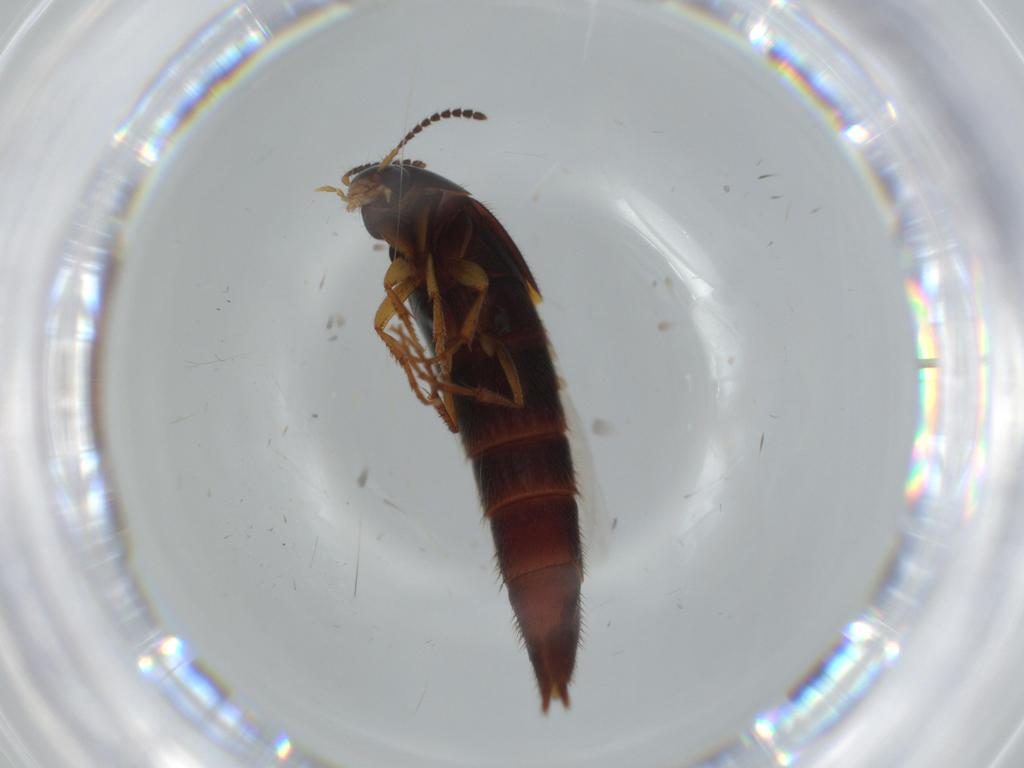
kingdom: Animalia
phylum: Arthropoda
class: Insecta
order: Coleoptera
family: Staphylinidae
